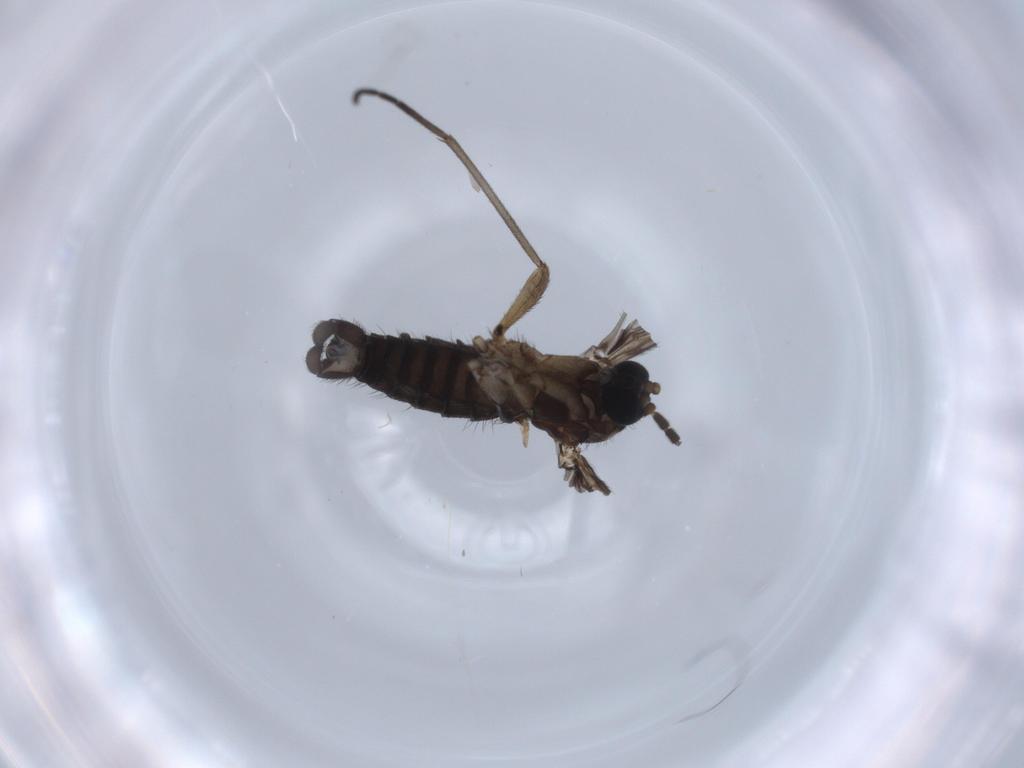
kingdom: Animalia
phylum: Arthropoda
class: Insecta
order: Diptera
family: Sciaridae
